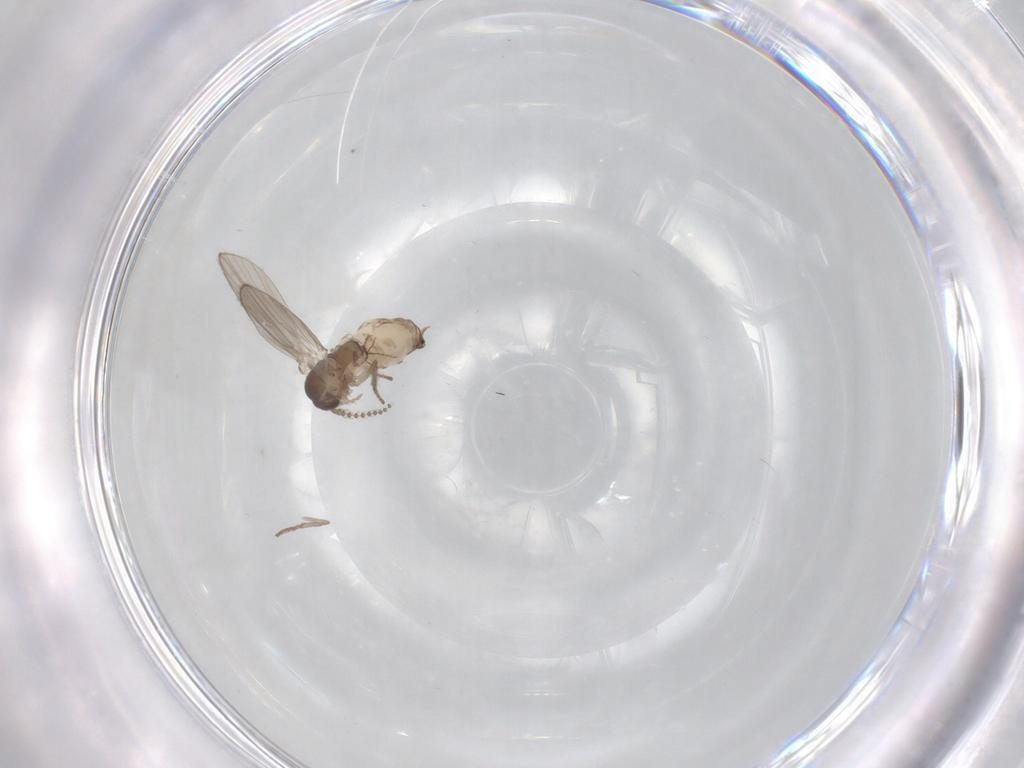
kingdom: Animalia
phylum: Arthropoda
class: Insecta
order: Diptera
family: Psychodidae
